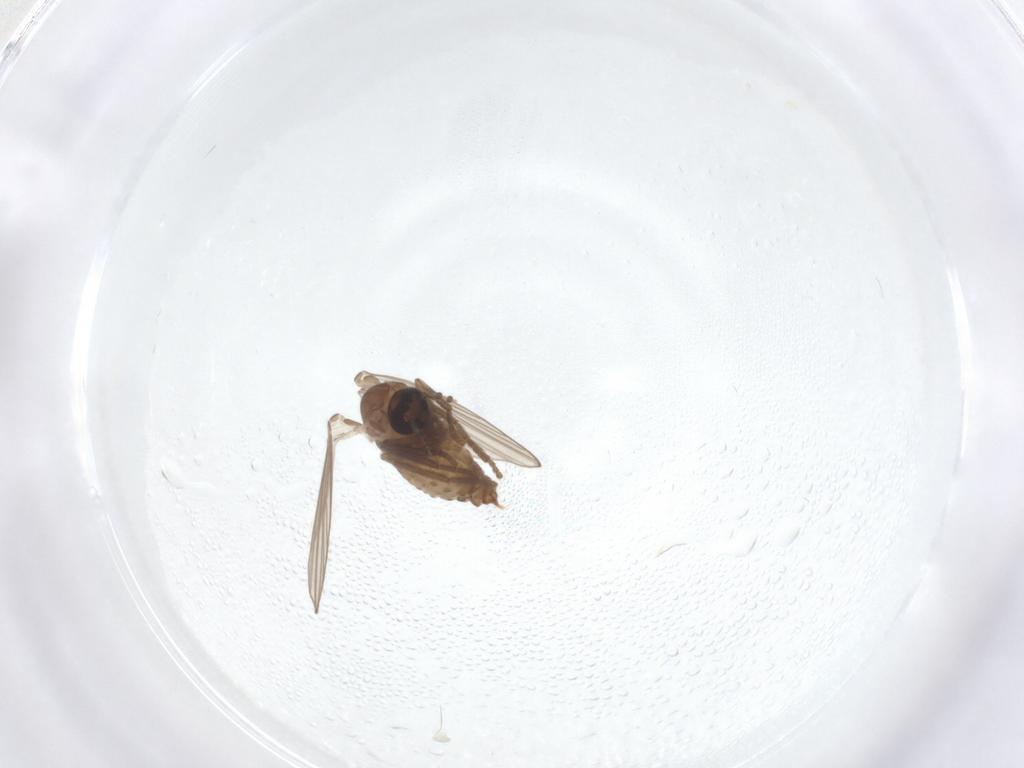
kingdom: Animalia
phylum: Arthropoda
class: Insecta
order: Diptera
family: Psychodidae
